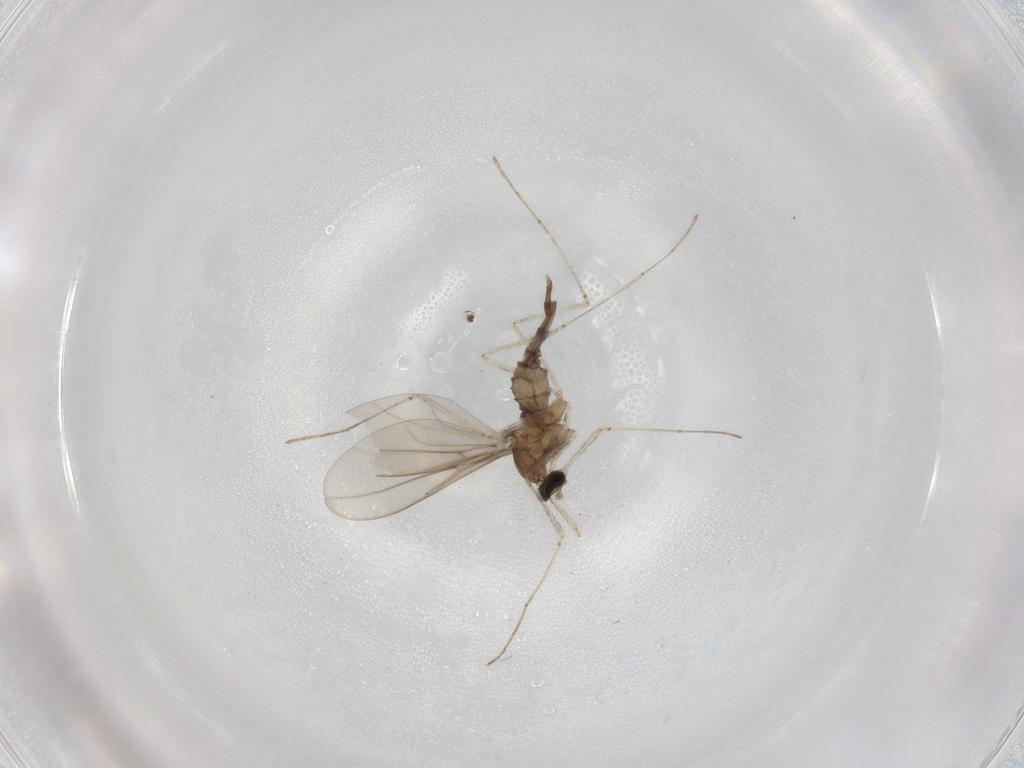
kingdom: Animalia
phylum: Arthropoda
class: Insecta
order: Diptera
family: Cecidomyiidae
